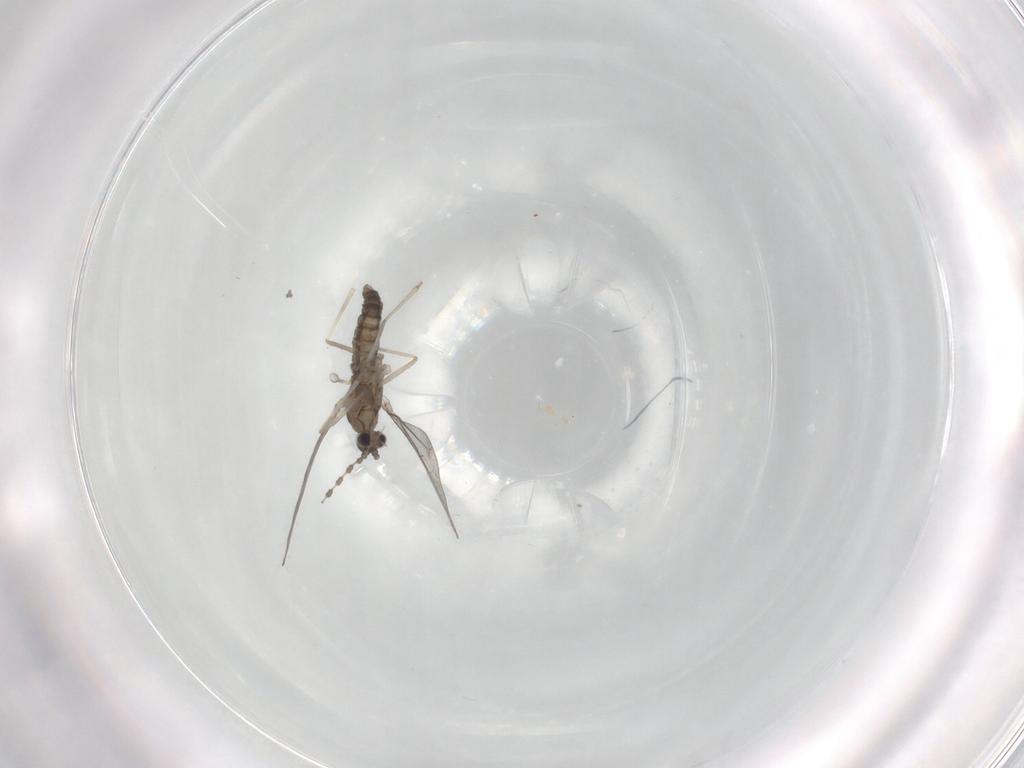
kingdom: Animalia
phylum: Arthropoda
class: Insecta
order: Diptera
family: Cecidomyiidae
